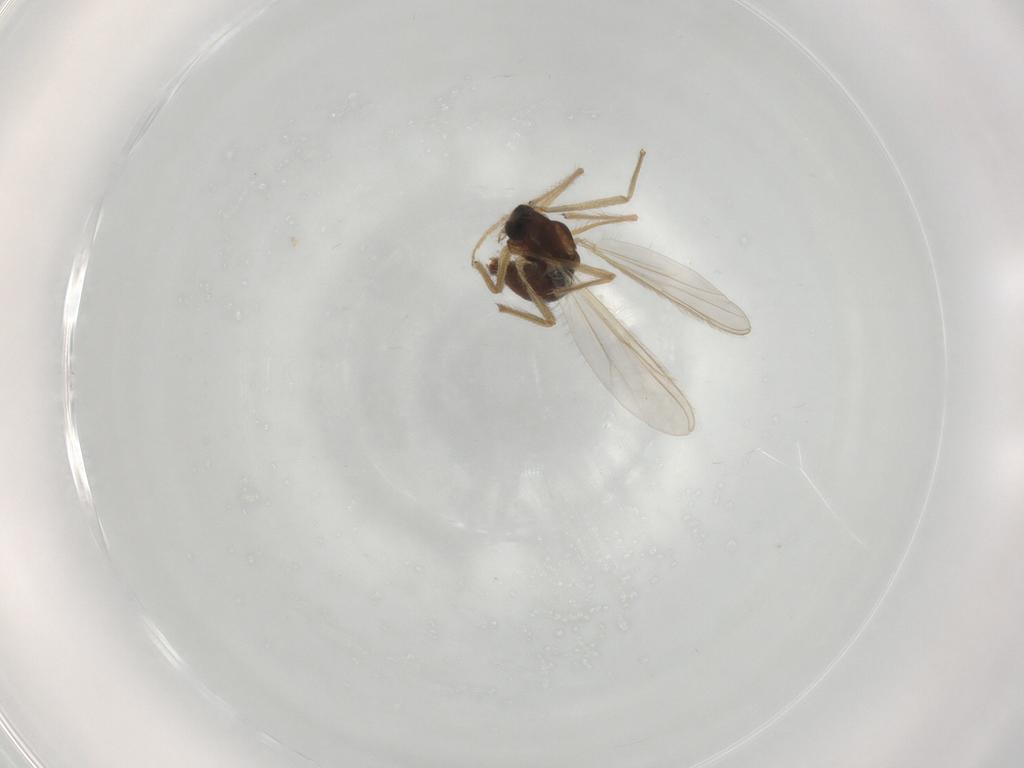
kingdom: Animalia
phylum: Arthropoda
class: Insecta
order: Diptera
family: Chironomidae
